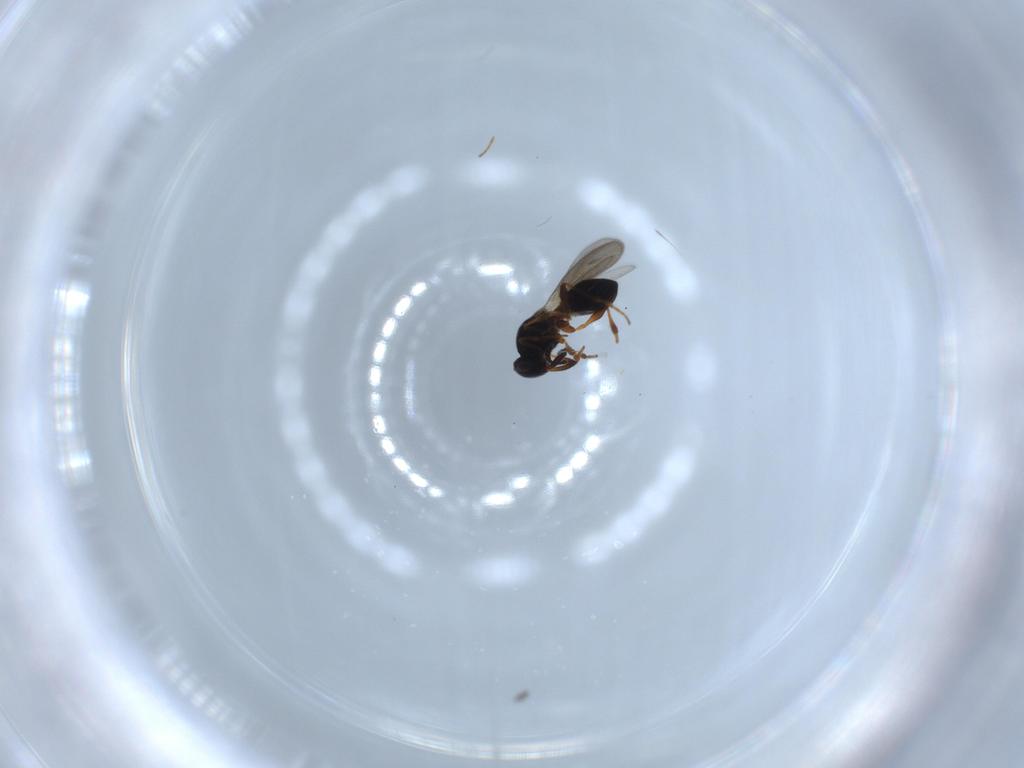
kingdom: Animalia
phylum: Arthropoda
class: Insecta
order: Hymenoptera
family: Platygastridae
